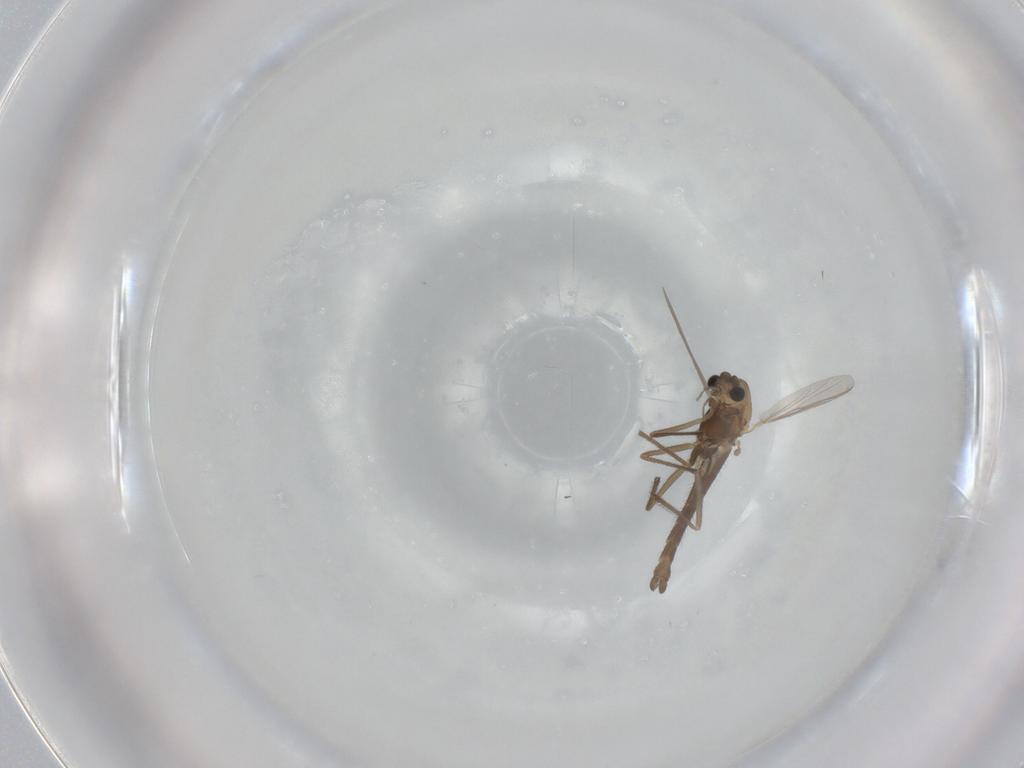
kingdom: Animalia
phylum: Arthropoda
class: Insecta
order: Diptera
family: Chironomidae
